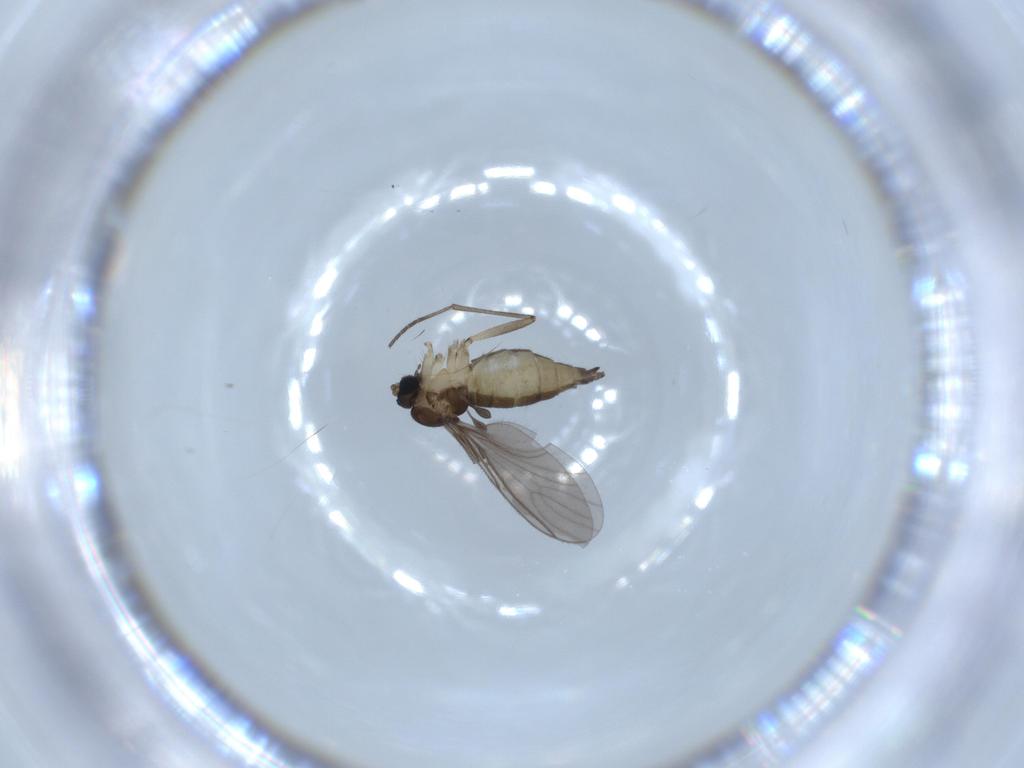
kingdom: Animalia
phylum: Arthropoda
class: Insecta
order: Diptera
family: Sciaridae
